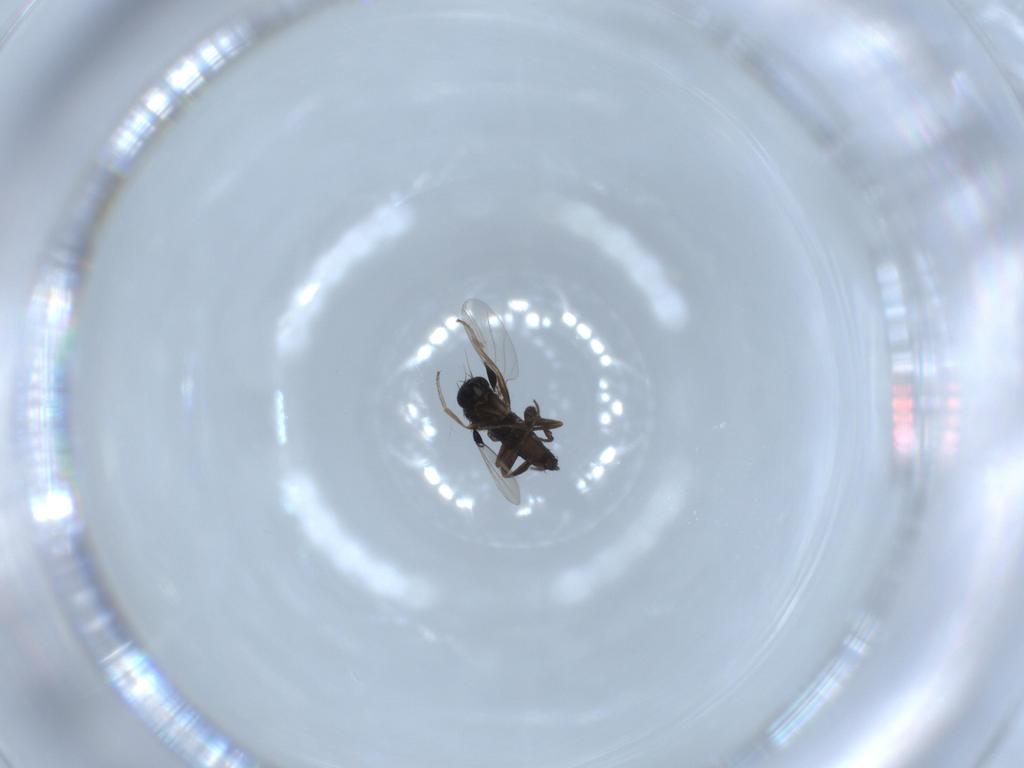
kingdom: Animalia
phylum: Arthropoda
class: Insecta
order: Diptera
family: Phoridae
